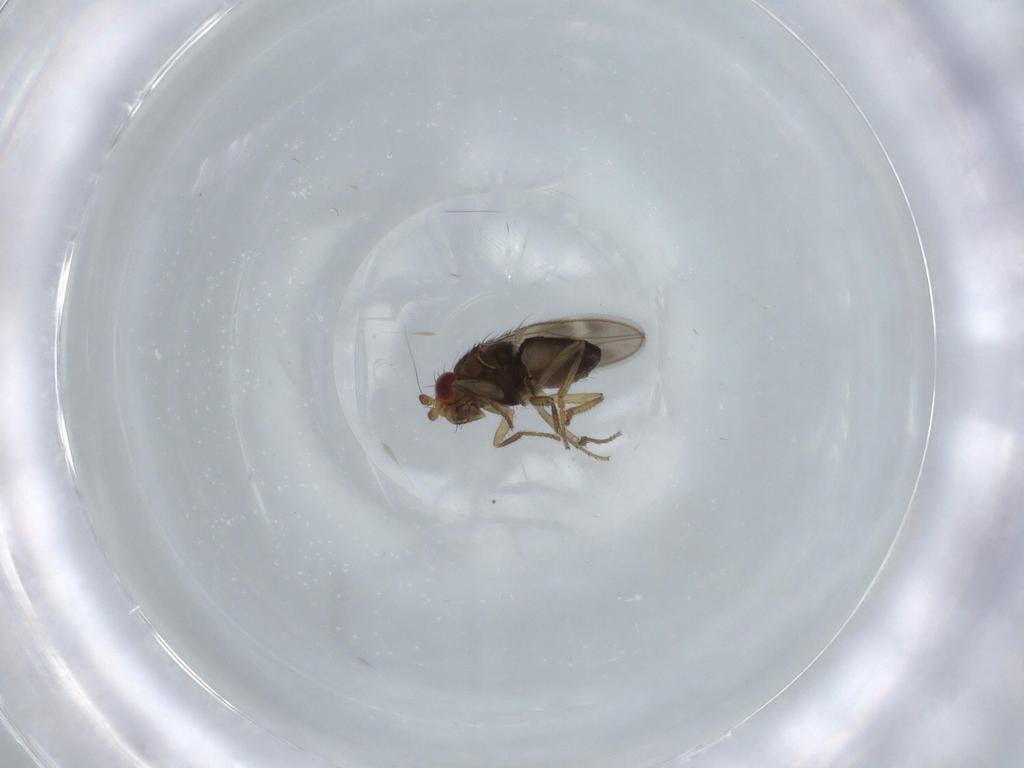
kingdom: Animalia
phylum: Arthropoda
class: Insecta
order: Diptera
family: Sphaeroceridae
